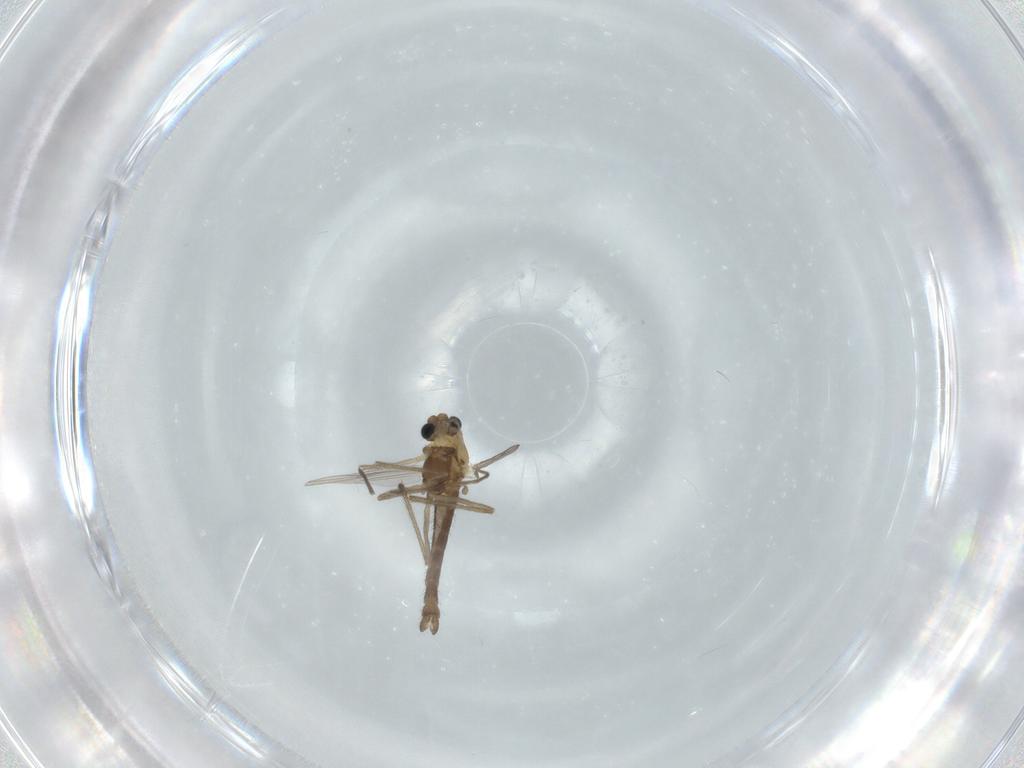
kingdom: Animalia
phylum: Arthropoda
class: Insecta
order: Diptera
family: Chironomidae
